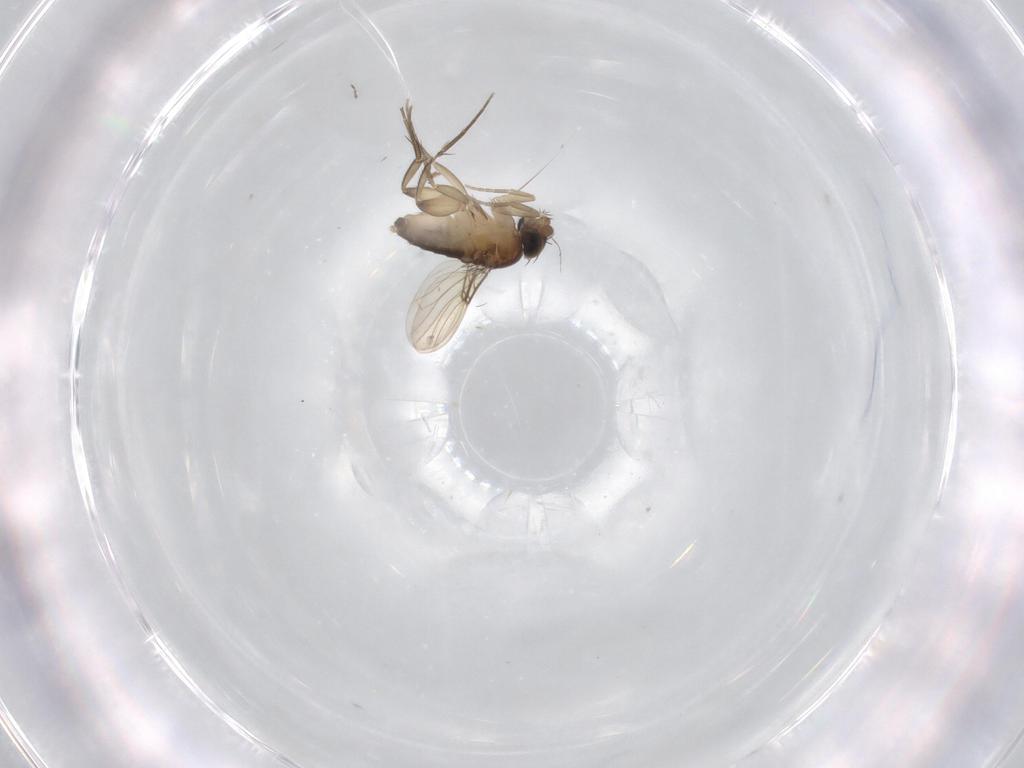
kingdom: Animalia
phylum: Arthropoda
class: Insecta
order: Diptera
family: Phoridae
